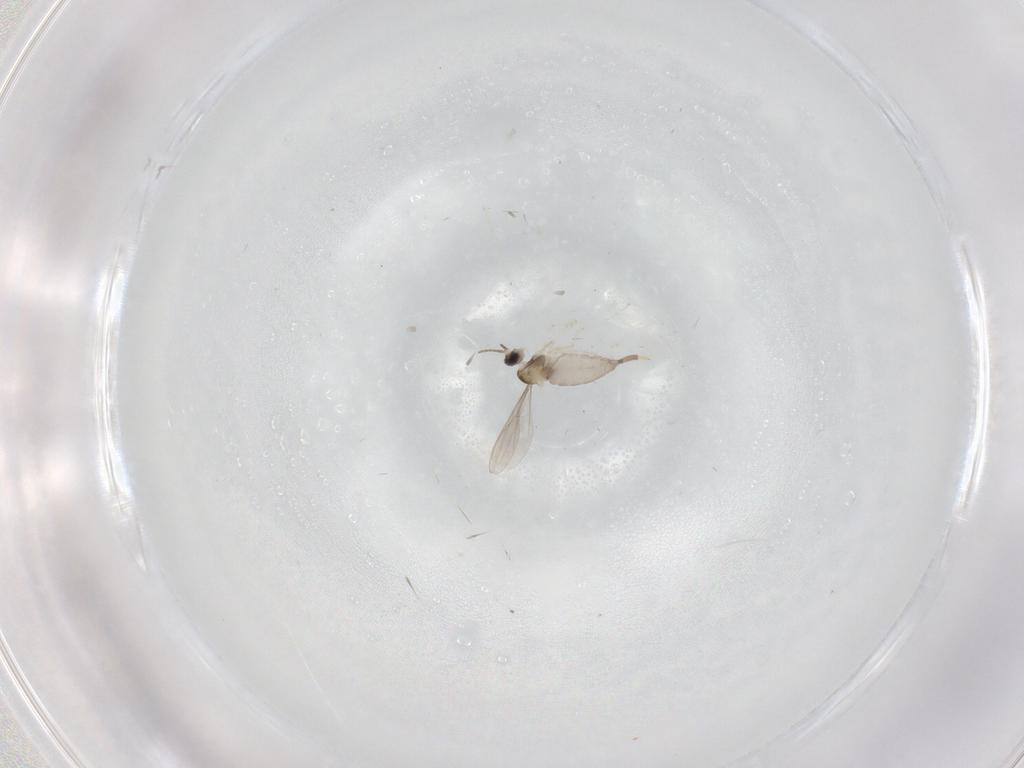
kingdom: Animalia
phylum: Arthropoda
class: Insecta
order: Diptera
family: Cecidomyiidae
